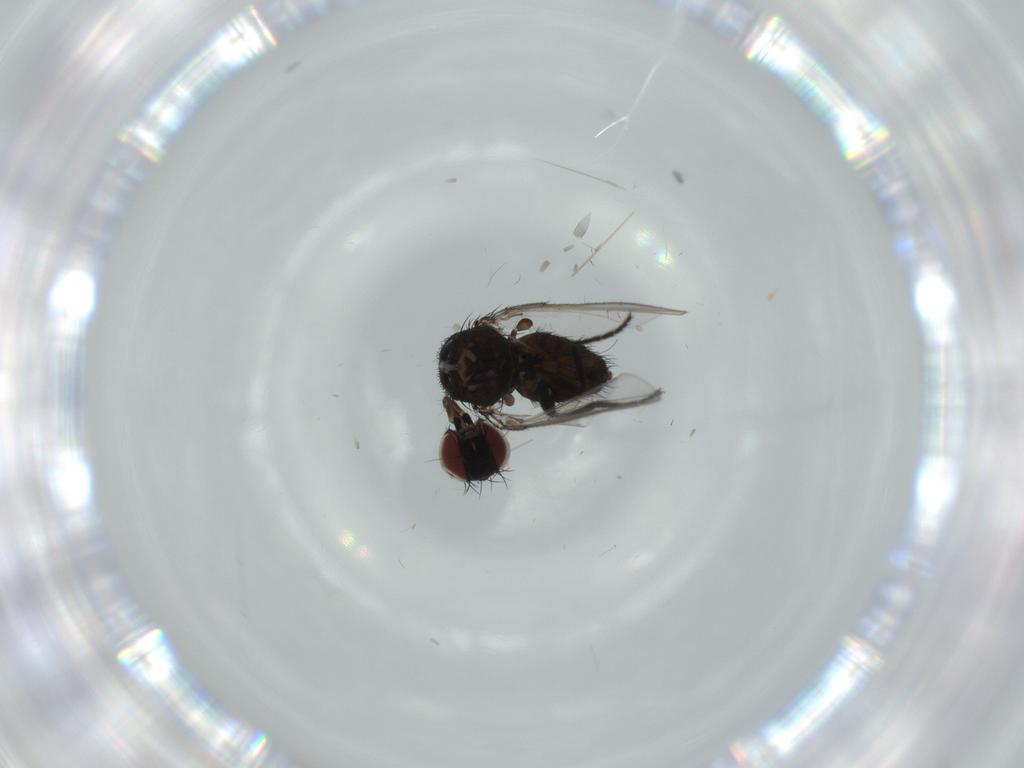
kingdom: Animalia
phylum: Arthropoda
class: Insecta
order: Diptera
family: Milichiidae
